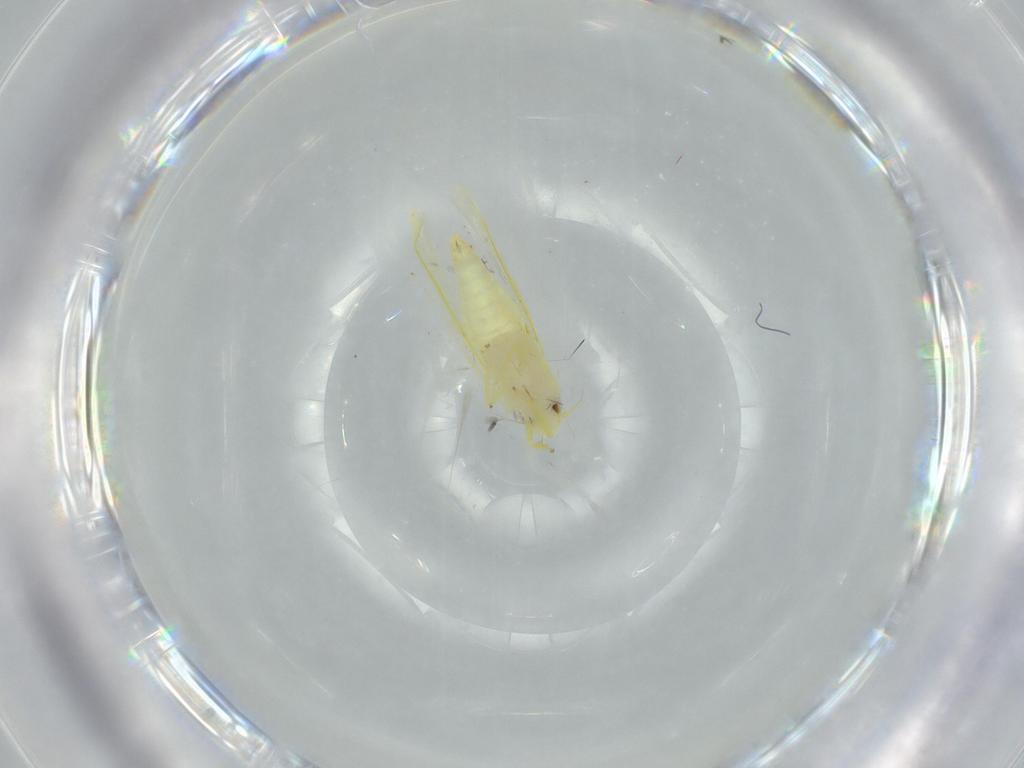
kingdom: Animalia
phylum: Arthropoda
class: Insecta
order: Hemiptera
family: Cicadellidae
